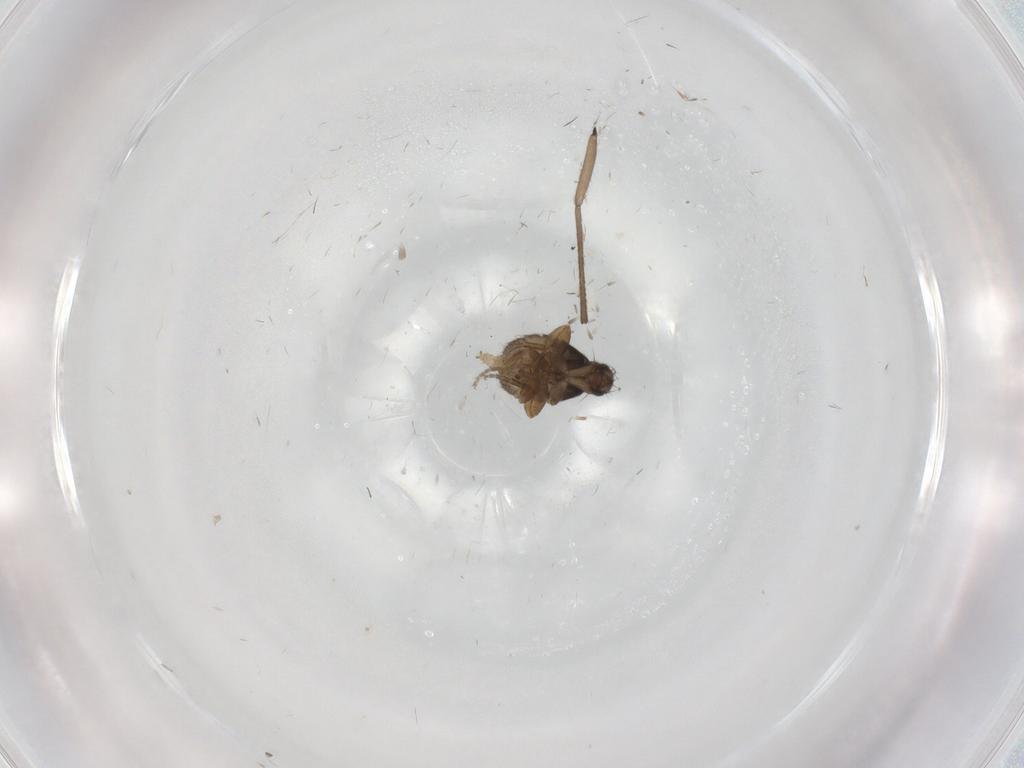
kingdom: Animalia
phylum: Arthropoda
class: Insecta
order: Diptera
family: Phoridae
